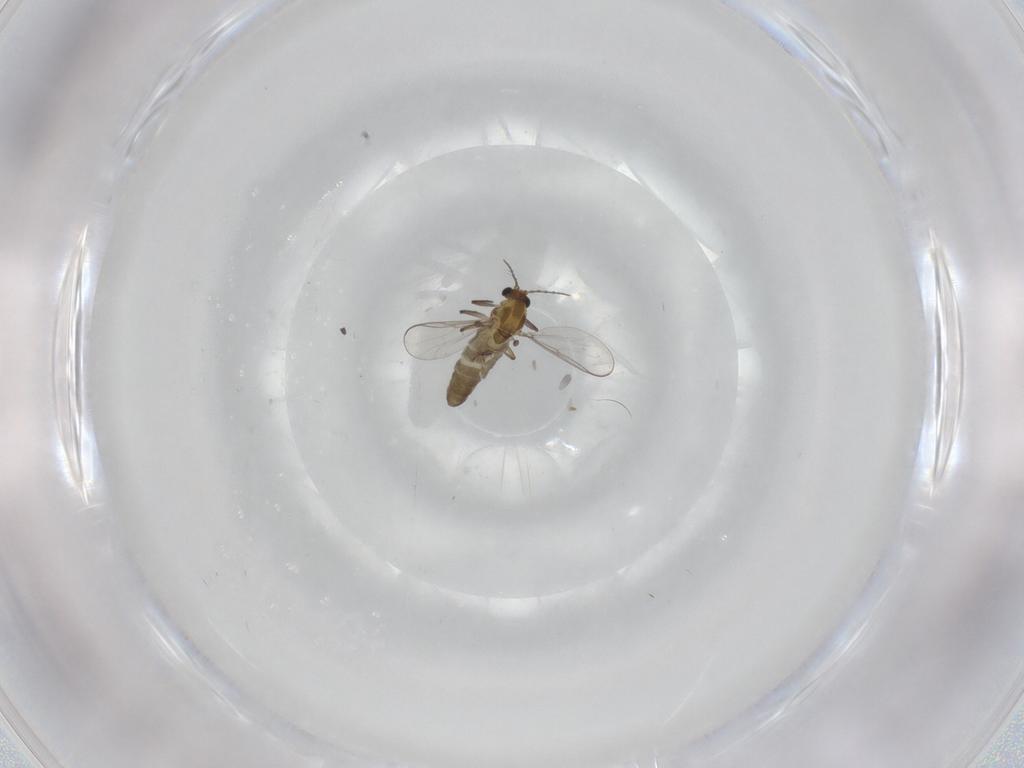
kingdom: Animalia
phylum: Arthropoda
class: Insecta
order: Diptera
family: Chironomidae
